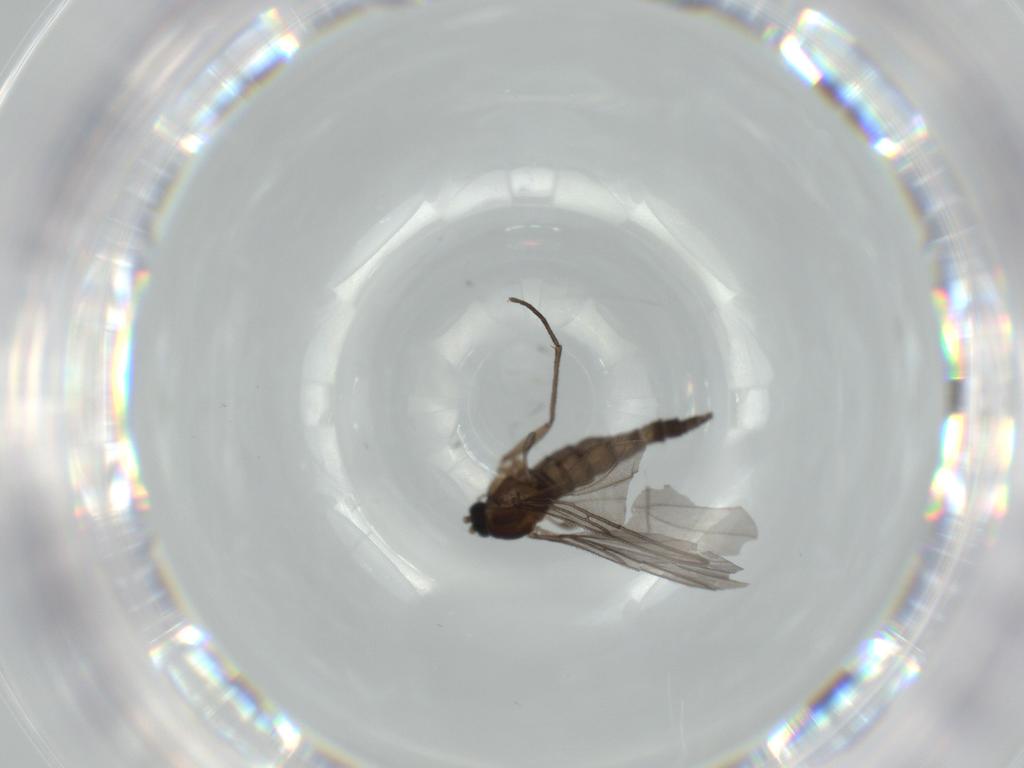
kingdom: Animalia
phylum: Arthropoda
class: Insecta
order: Diptera
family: Sciaridae
